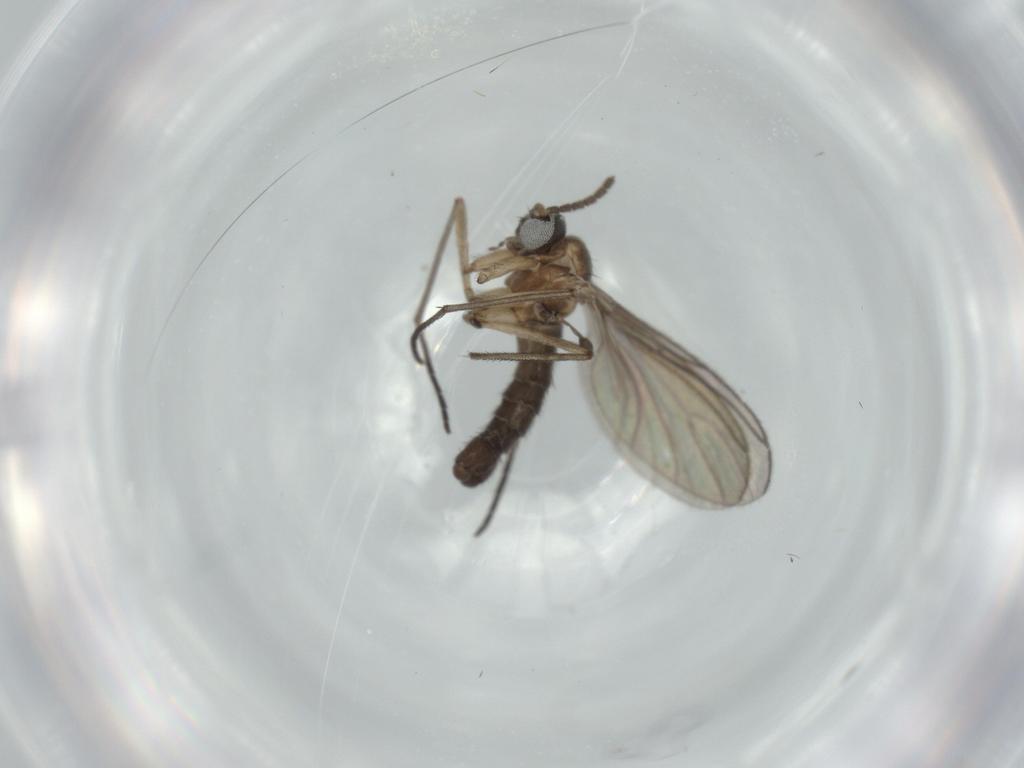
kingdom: Animalia
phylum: Arthropoda
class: Insecta
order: Diptera
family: Sciaridae
